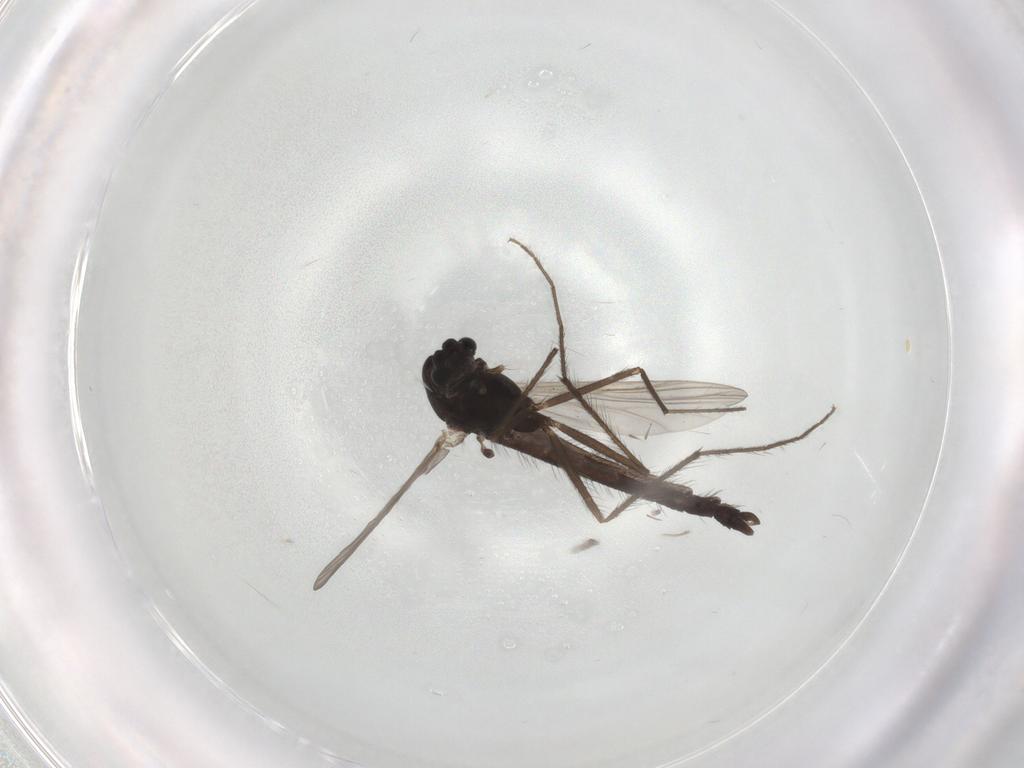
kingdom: Animalia
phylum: Arthropoda
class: Insecta
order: Diptera
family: Chironomidae
